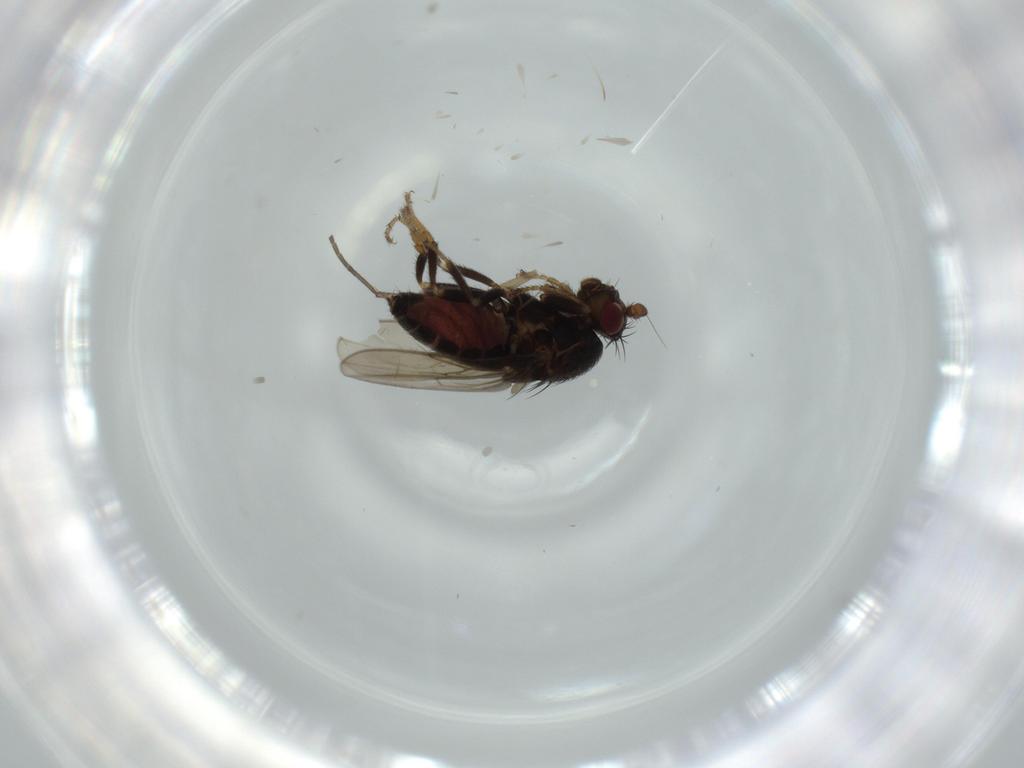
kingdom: Animalia
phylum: Arthropoda
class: Insecta
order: Diptera
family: Sphaeroceridae
